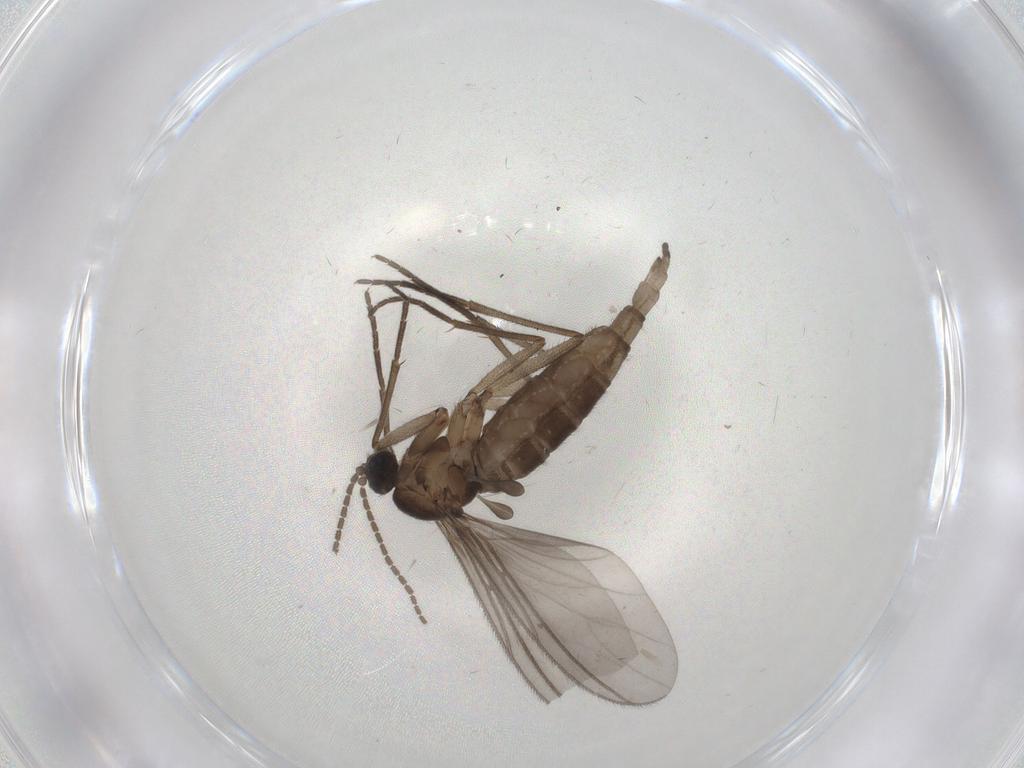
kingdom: Animalia
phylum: Arthropoda
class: Insecta
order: Diptera
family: Sciaridae
